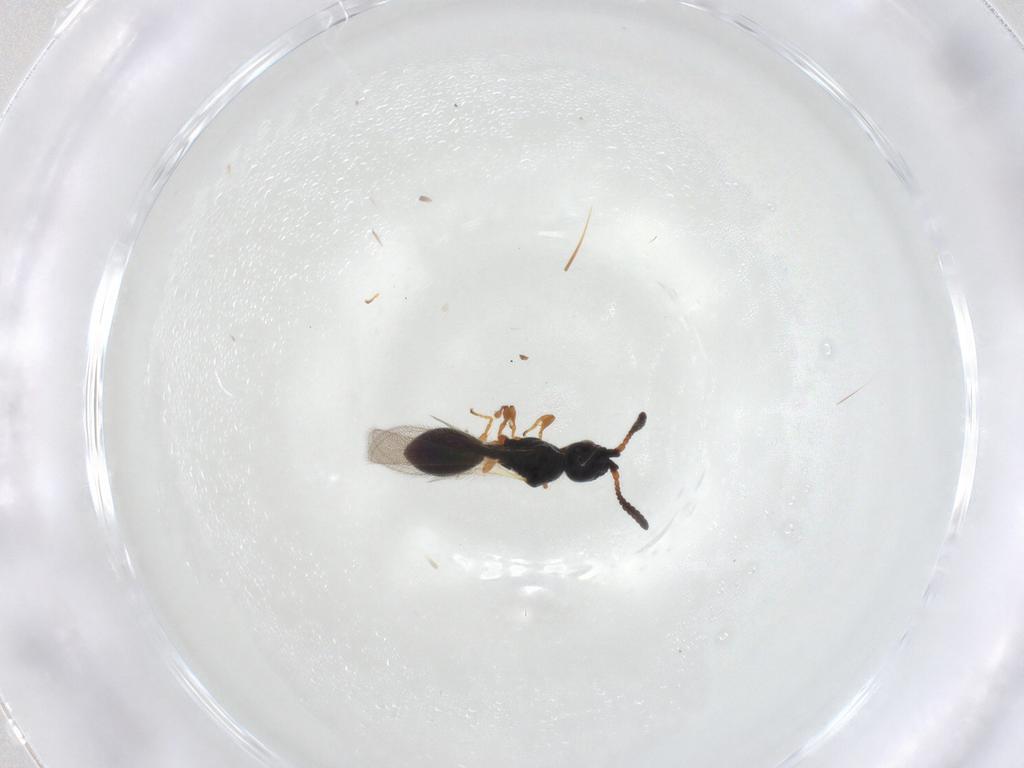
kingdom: Animalia
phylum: Arthropoda
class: Insecta
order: Hymenoptera
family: Diapriidae
